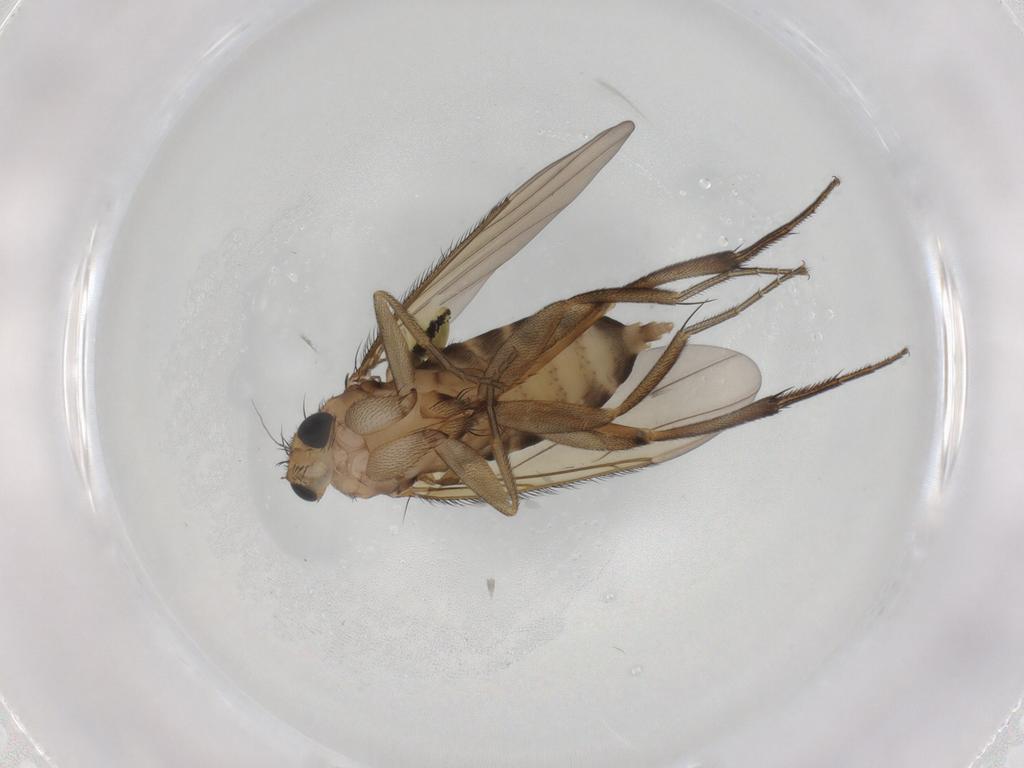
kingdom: Animalia
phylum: Arthropoda
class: Insecta
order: Diptera
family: Phoridae
